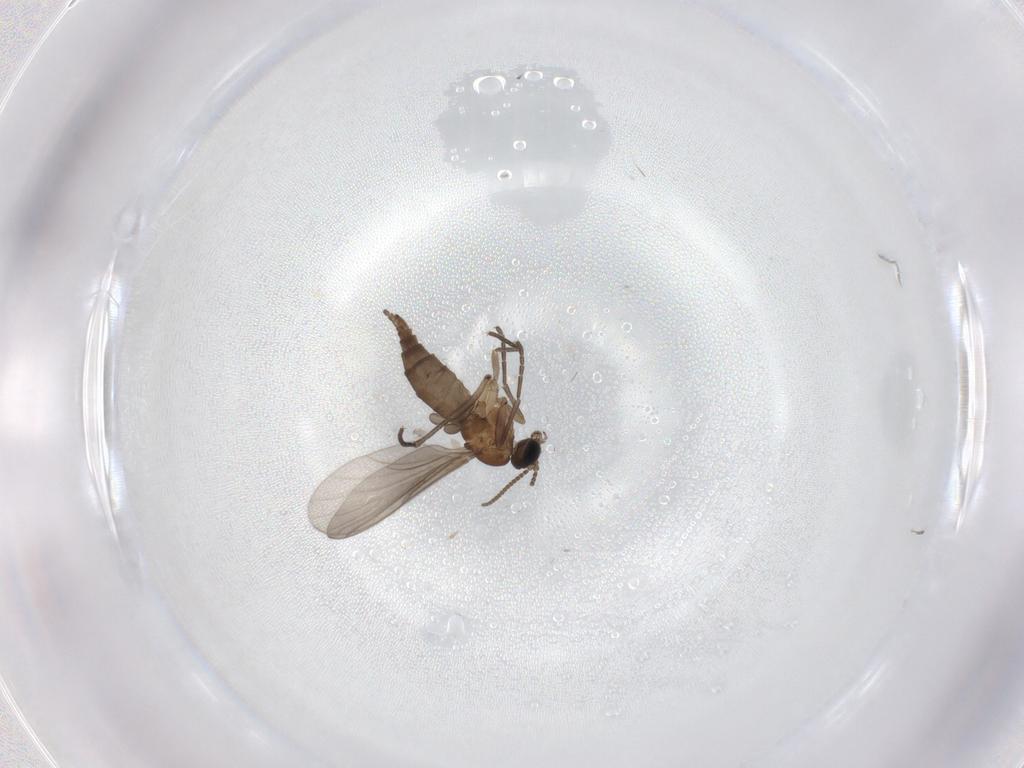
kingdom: Animalia
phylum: Arthropoda
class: Insecta
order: Diptera
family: Sciaridae
